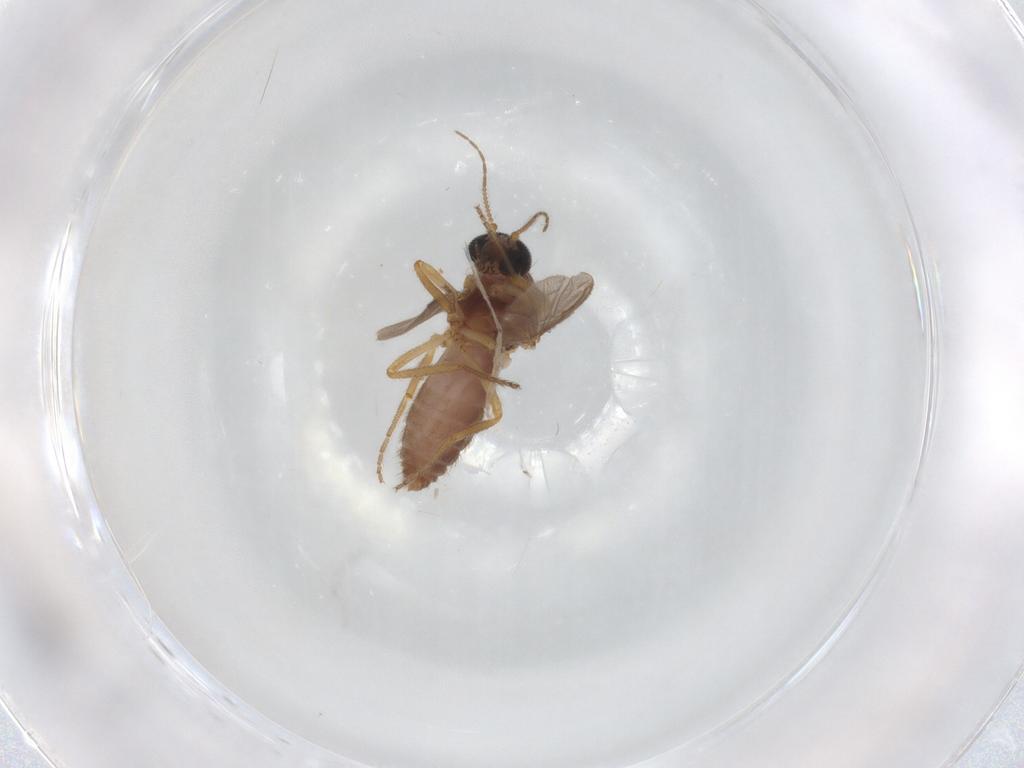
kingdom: Animalia
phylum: Arthropoda
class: Insecta
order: Diptera
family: Ceratopogonidae
